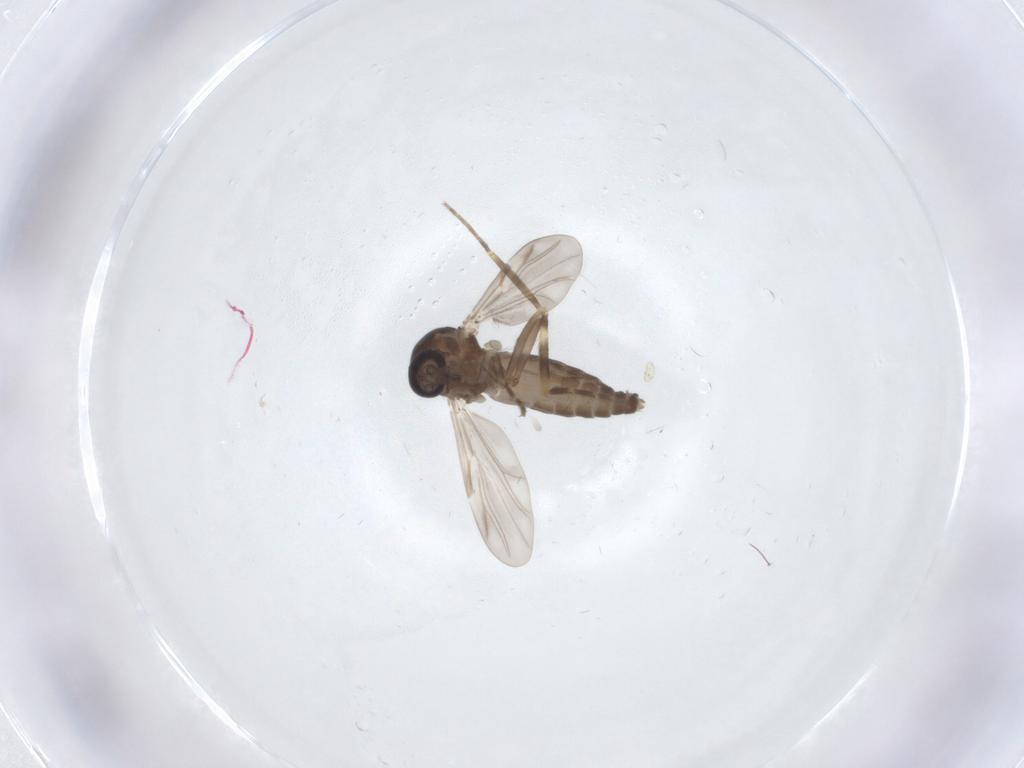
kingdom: Animalia
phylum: Arthropoda
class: Insecta
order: Diptera
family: Ceratopogonidae
